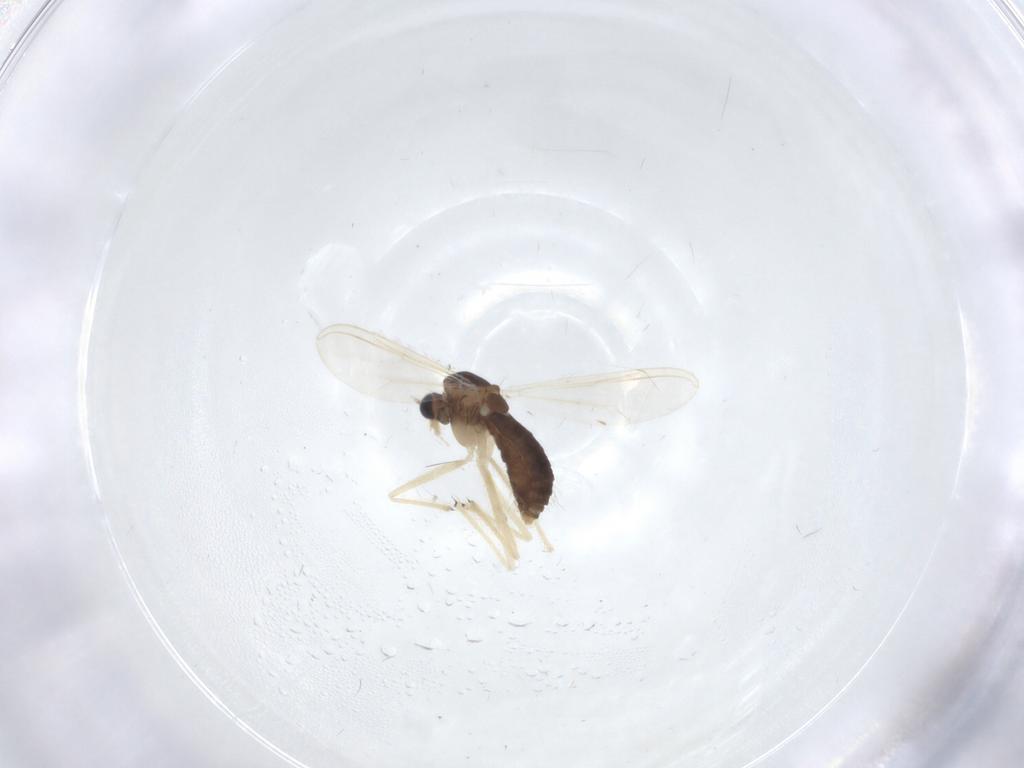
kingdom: Animalia
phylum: Arthropoda
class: Insecta
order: Diptera
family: Chironomidae
